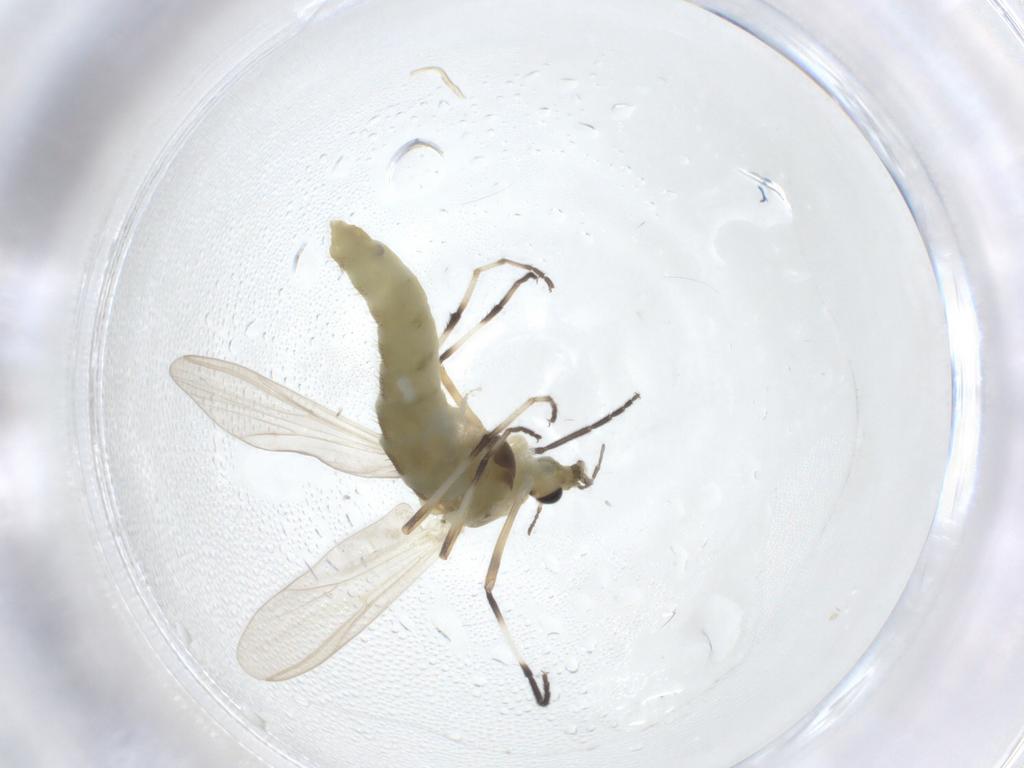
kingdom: Animalia
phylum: Arthropoda
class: Insecta
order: Diptera
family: Chironomidae
